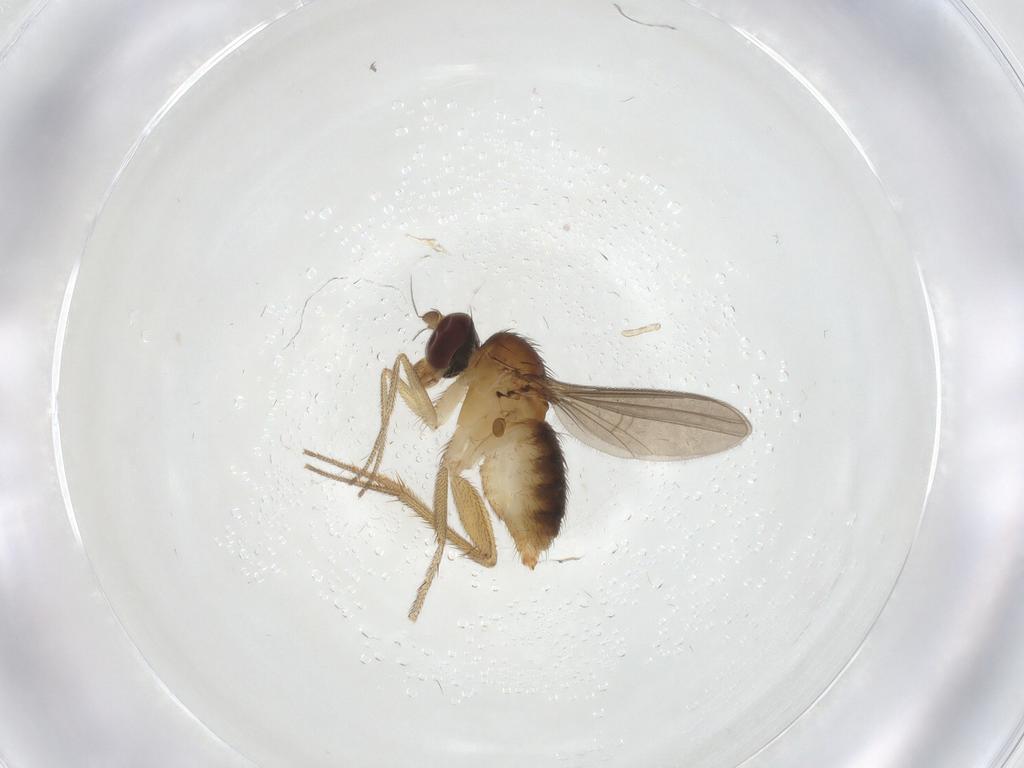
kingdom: Animalia
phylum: Arthropoda
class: Insecta
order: Diptera
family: Dolichopodidae
